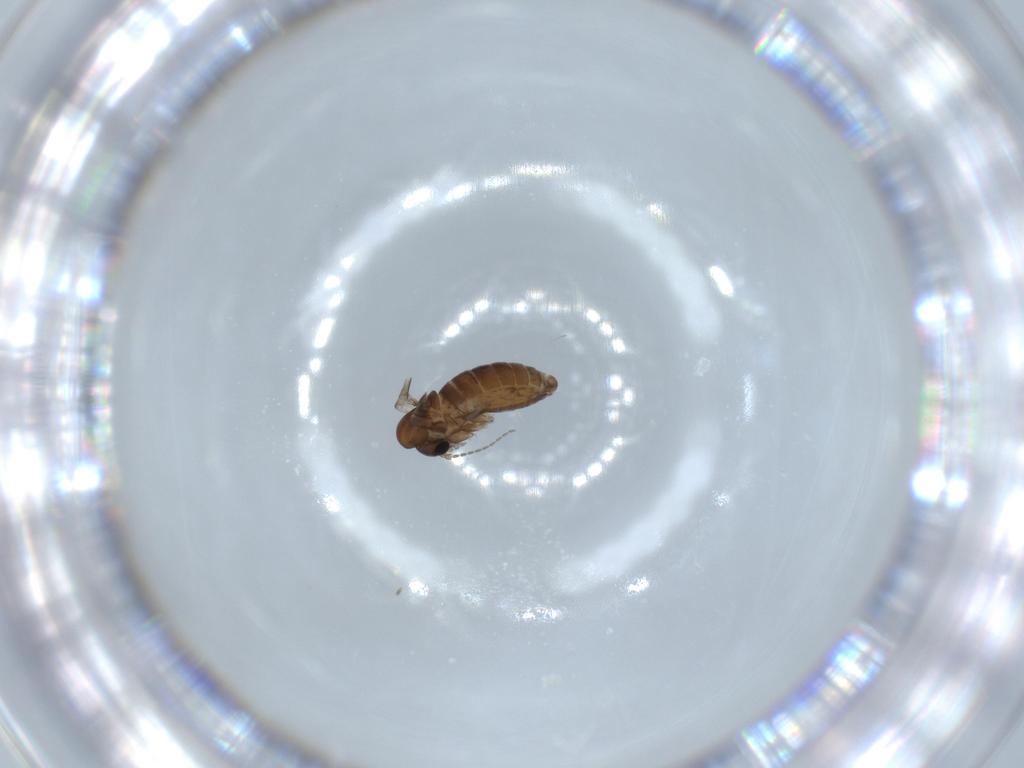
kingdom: Animalia
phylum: Arthropoda
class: Insecta
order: Diptera
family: Psychodidae
